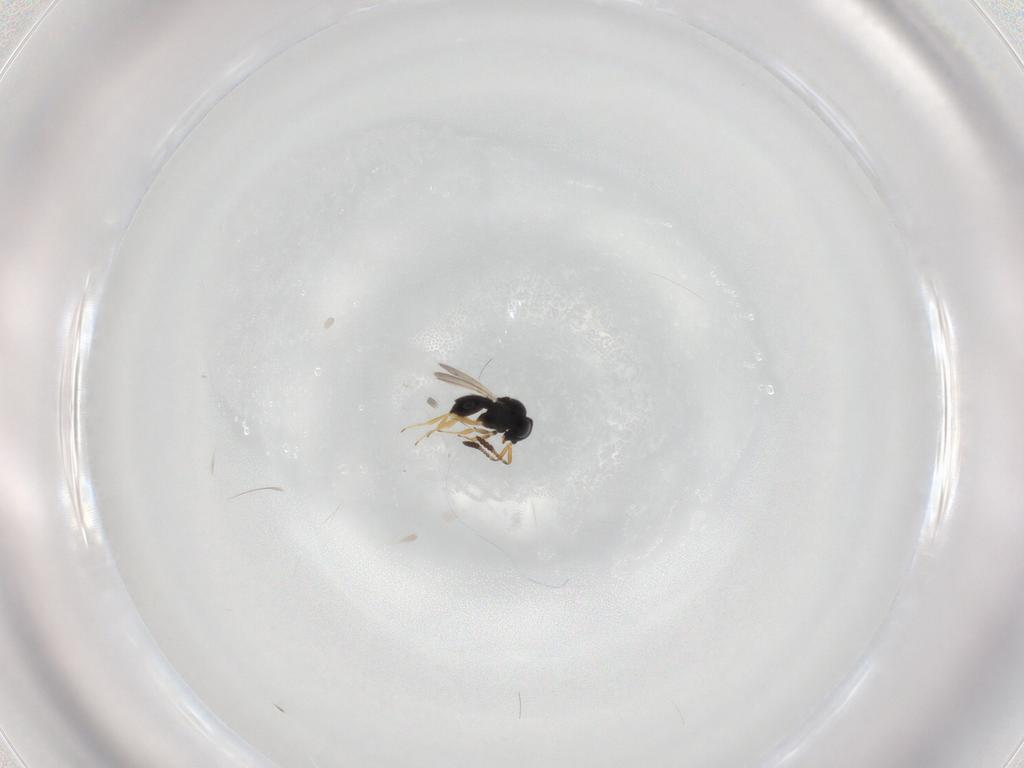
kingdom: Animalia
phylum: Arthropoda
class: Insecta
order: Hymenoptera
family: Scelionidae
